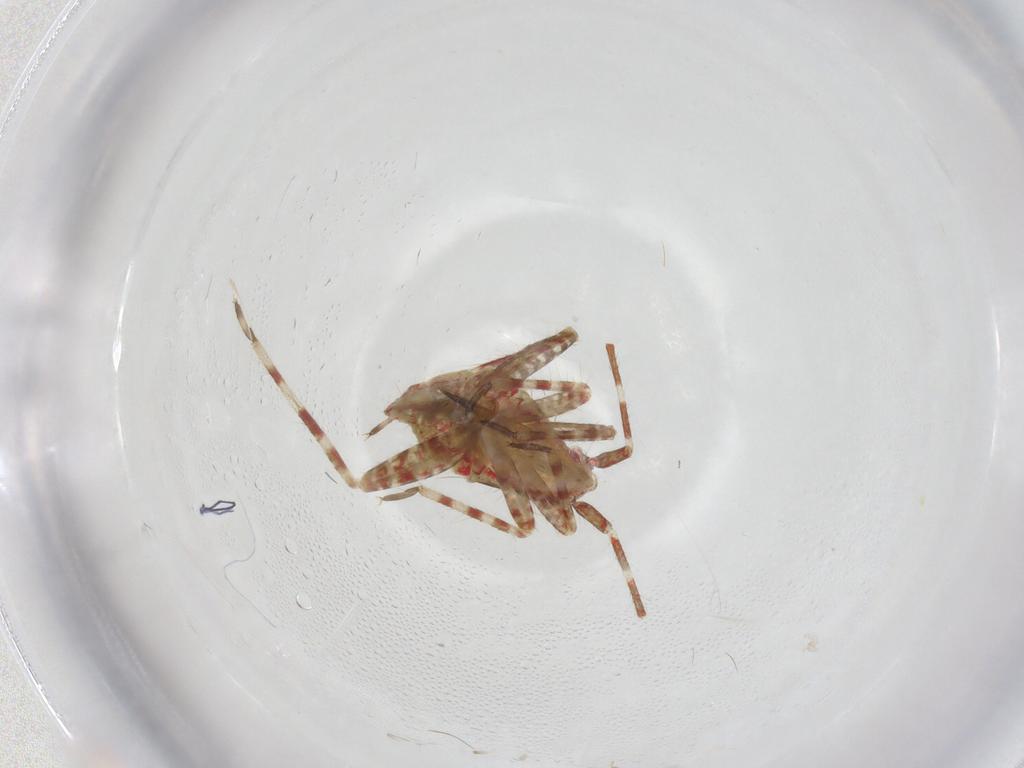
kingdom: Animalia
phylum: Arthropoda
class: Insecta
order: Hemiptera
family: Miridae
